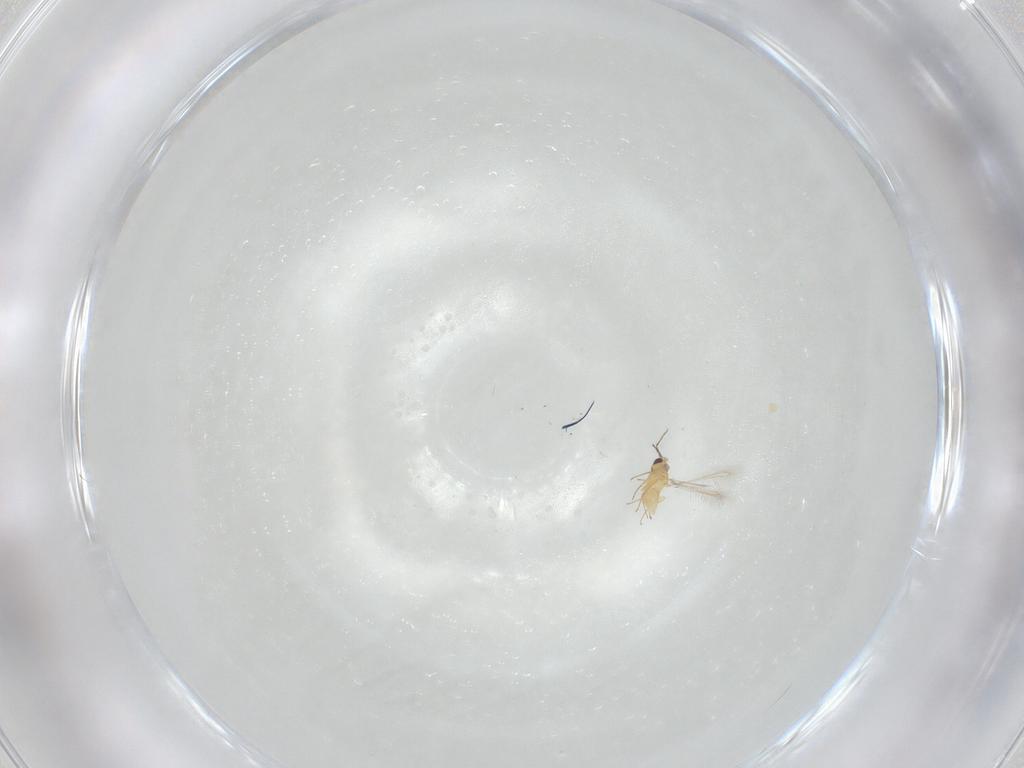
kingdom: Animalia
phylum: Arthropoda
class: Insecta
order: Hymenoptera
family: Mymaridae
